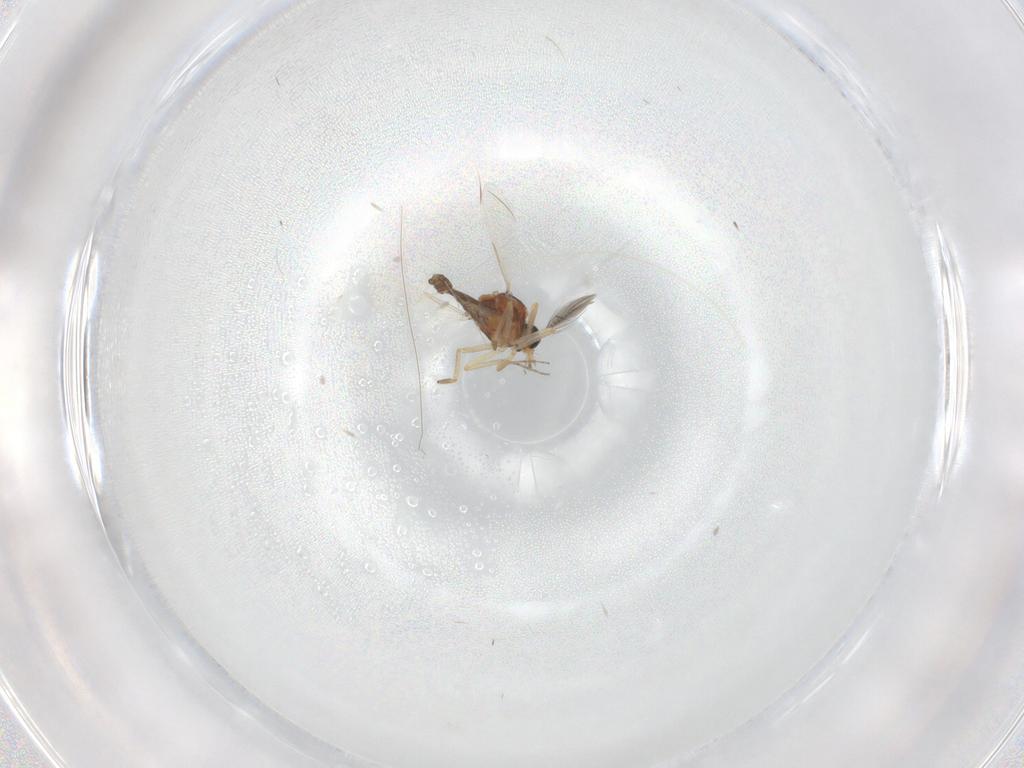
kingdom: Animalia
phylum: Arthropoda
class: Insecta
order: Diptera
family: Ceratopogonidae
